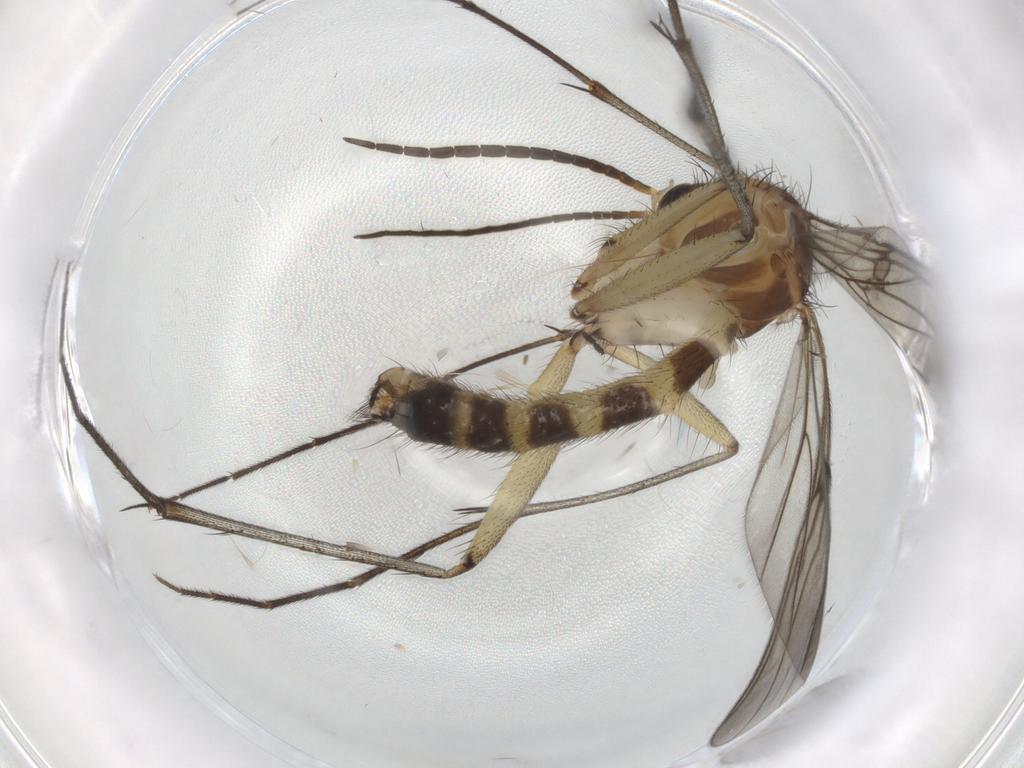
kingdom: Animalia
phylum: Arthropoda
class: Insecta
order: Diptera
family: Mycetophilidae
